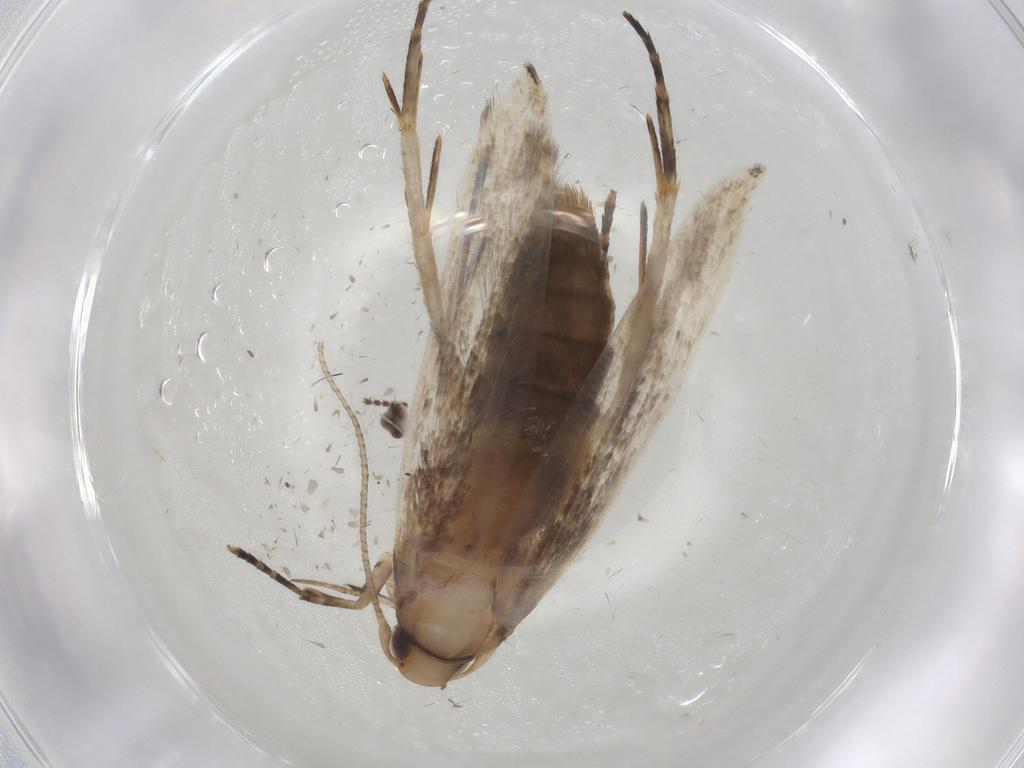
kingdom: Animalia
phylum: Arthropoda
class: Insecta
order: Lepidoptera
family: Cosmopterigidae
